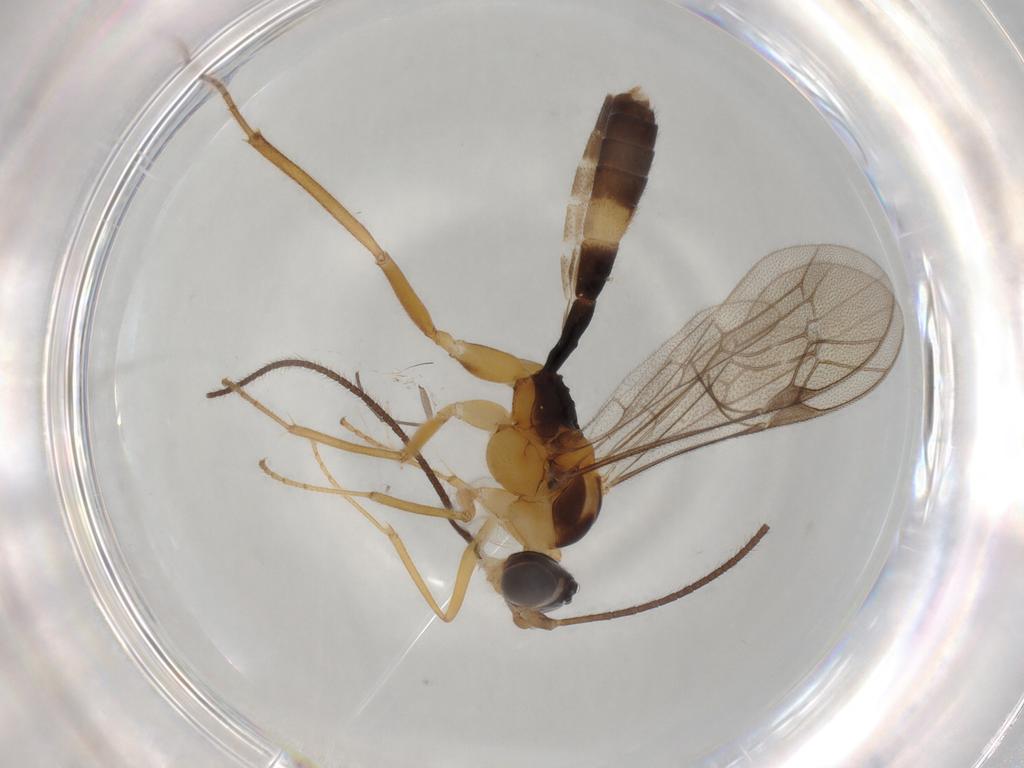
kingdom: Animalia
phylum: Arthropoda
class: Insecta
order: Hymenoptera
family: Ichneumonidae
